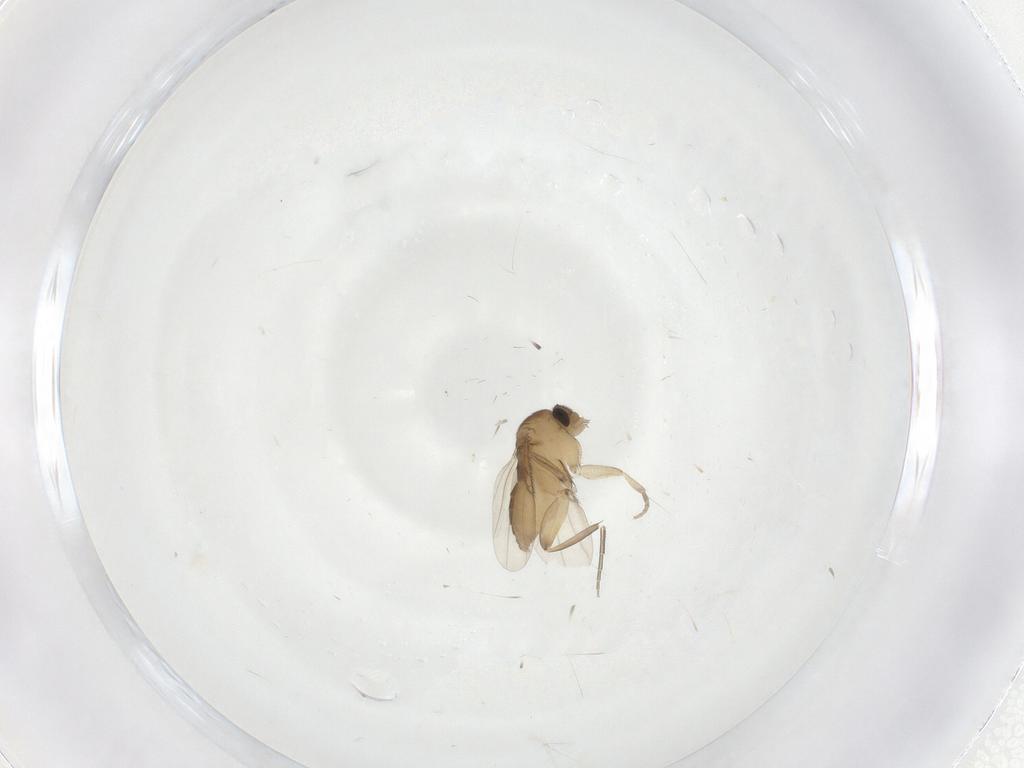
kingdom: Animalia
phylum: Arthropoda
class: Insecta
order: Diptera
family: Phoridae
